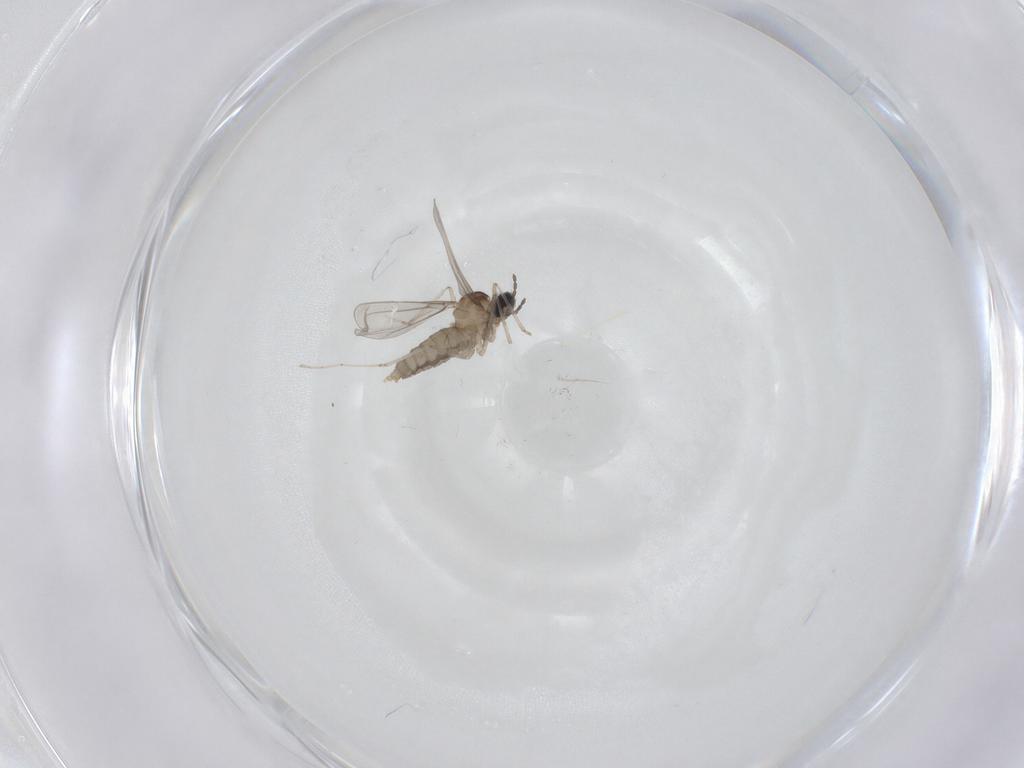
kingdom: Animalia
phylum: Arthropoda
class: Insecta
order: Diptera
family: Cecidomyiidae
